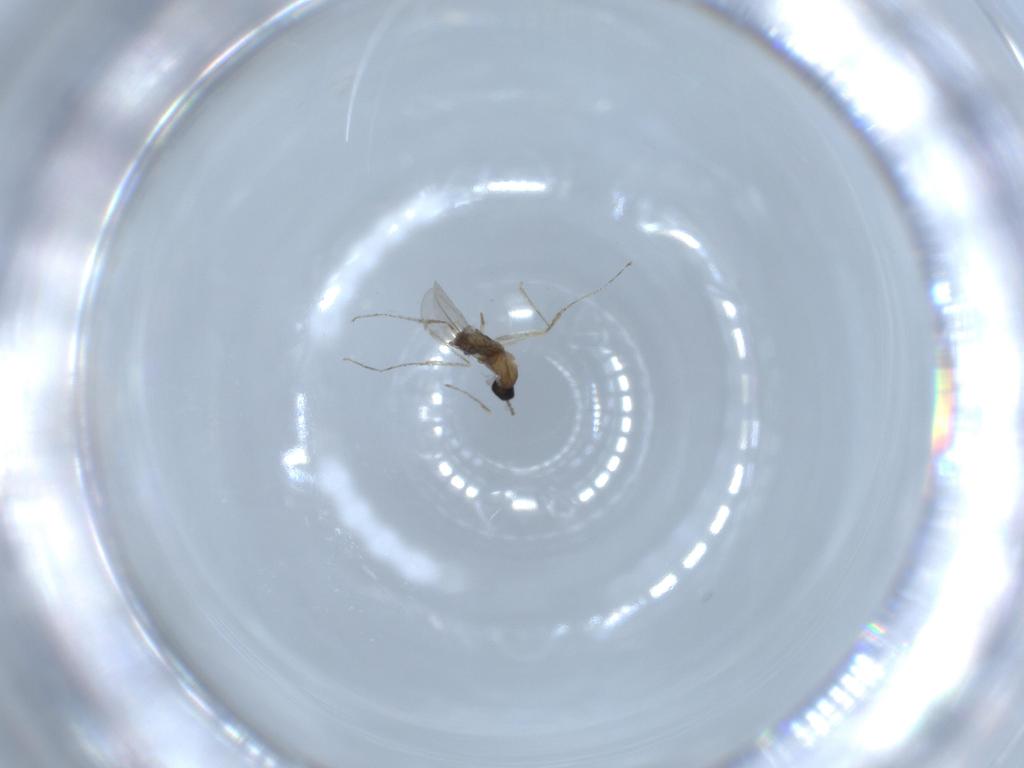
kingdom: Animalia
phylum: Arthropoda
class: Insecta
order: Diptera
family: Cecidomyiidae
